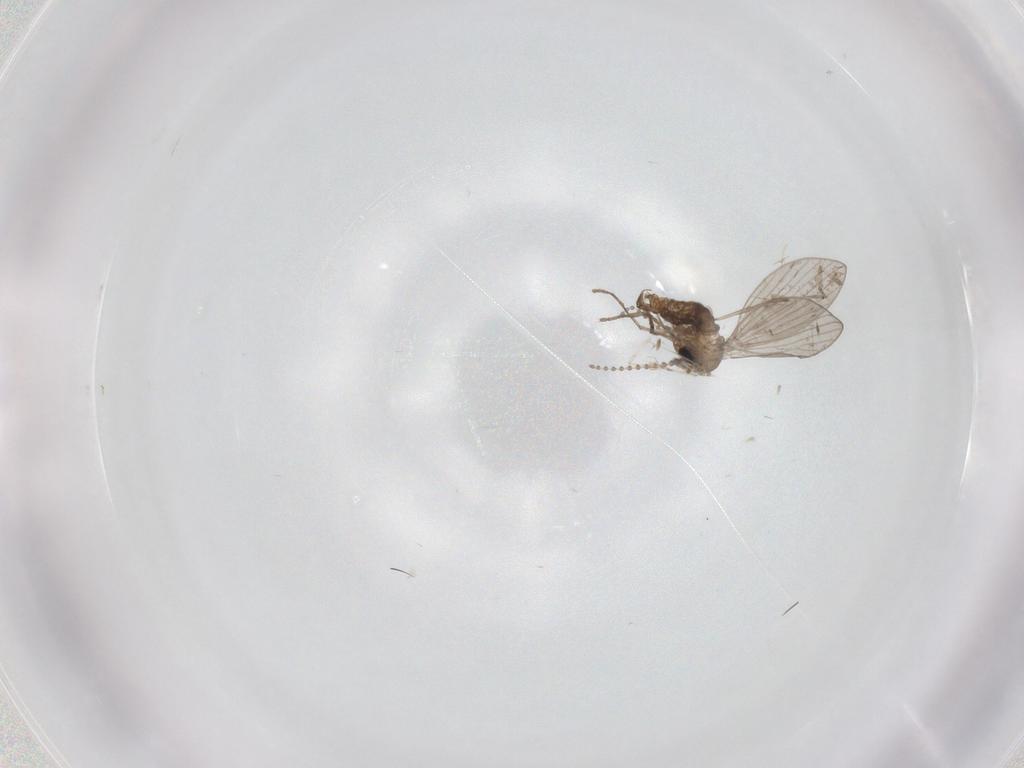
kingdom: Animalia
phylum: Arthropoda
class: Insecta
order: Diptera
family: Psychodidae
